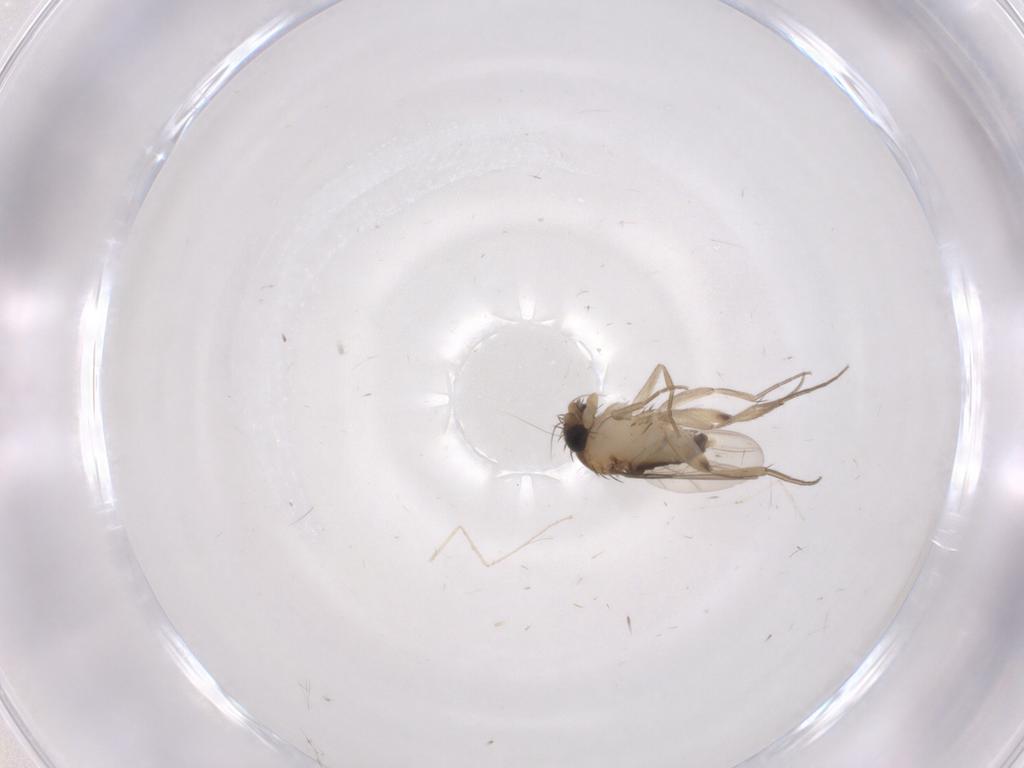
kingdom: Animalia
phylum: Arthropoda
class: Insecta
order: Diptera
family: Phoridae
